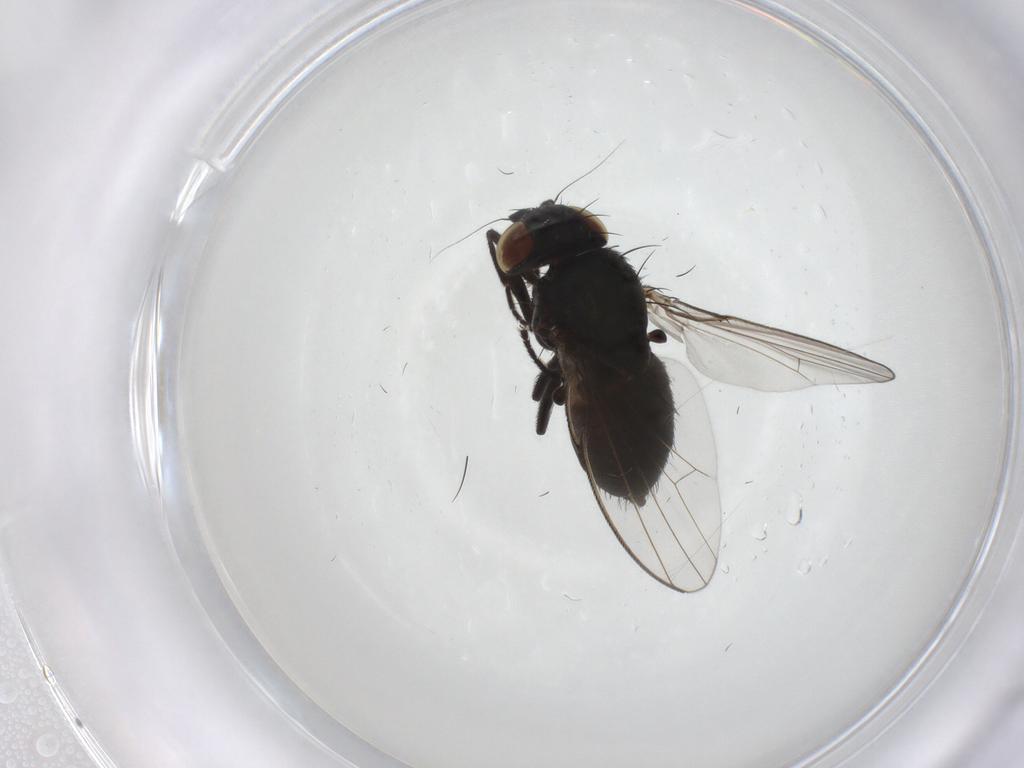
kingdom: Animalia
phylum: Arthropoda
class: Insecta
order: Diptera
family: Milichiidae
